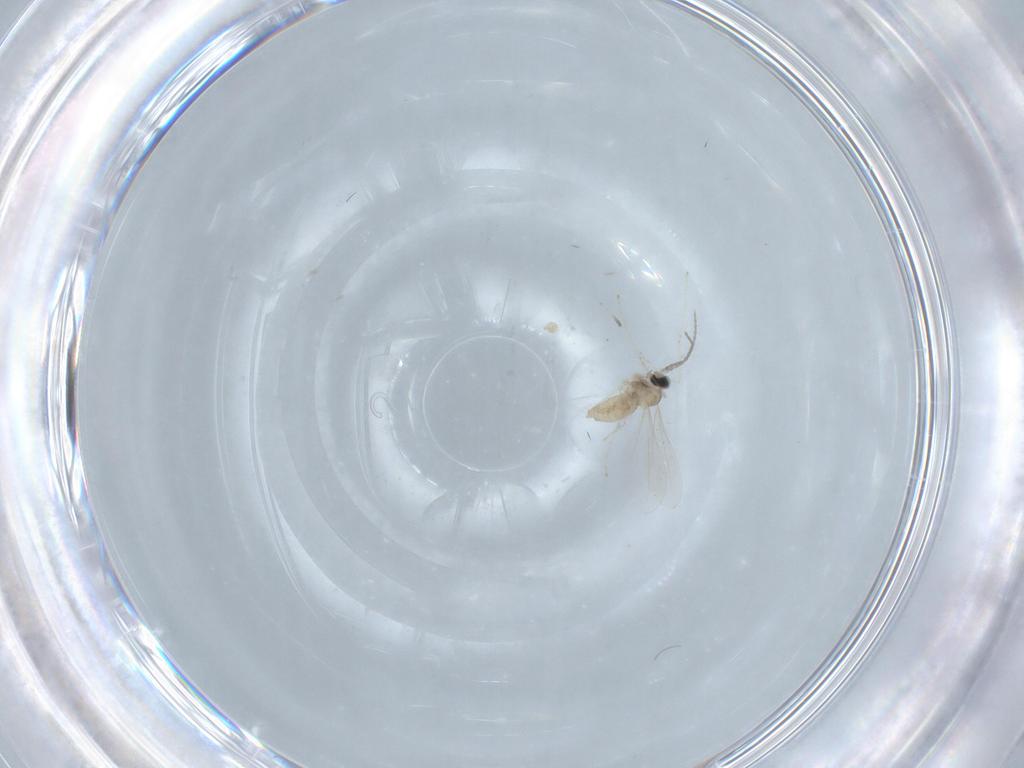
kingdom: Animalia
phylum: Arthropoda
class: Insecta
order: Diptera
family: Cecidomyiidae
